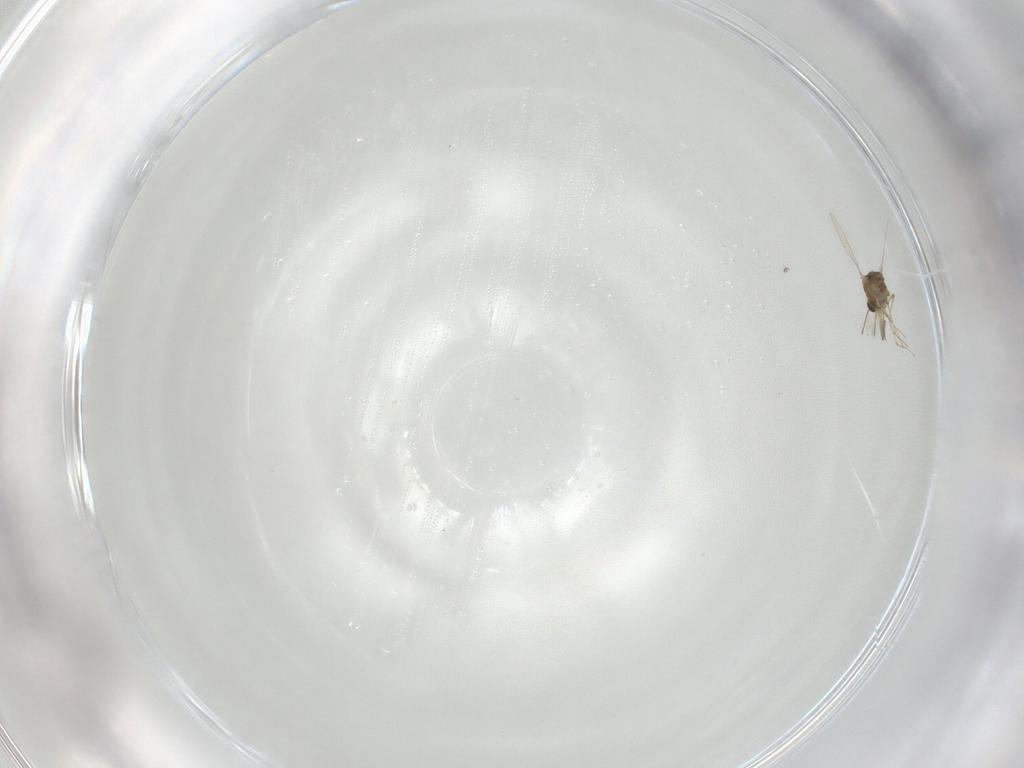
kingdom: Animalia
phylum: Arthropoda
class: Insecta
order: Diptera
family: Chironomidae
